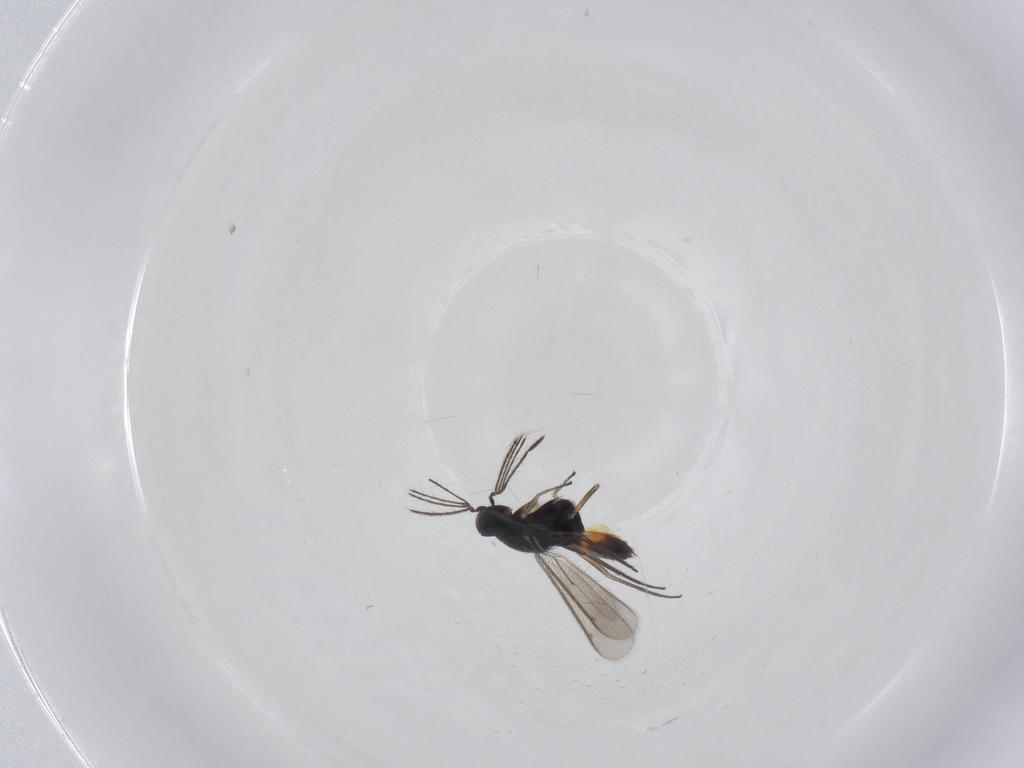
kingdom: Animalia
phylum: Arthropoda
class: Insecta
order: Hymenoptera
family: Eulophidae
